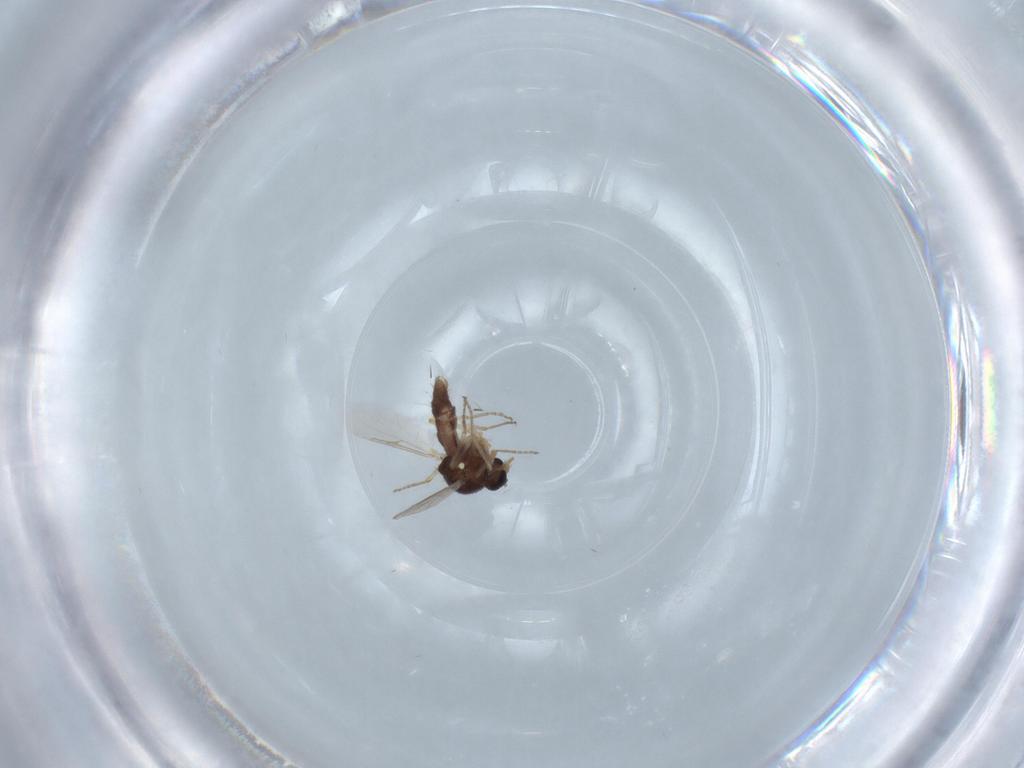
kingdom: Animalia
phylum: Arthropoda
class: Insecta
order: Diptera
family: Ceratopogonidae
